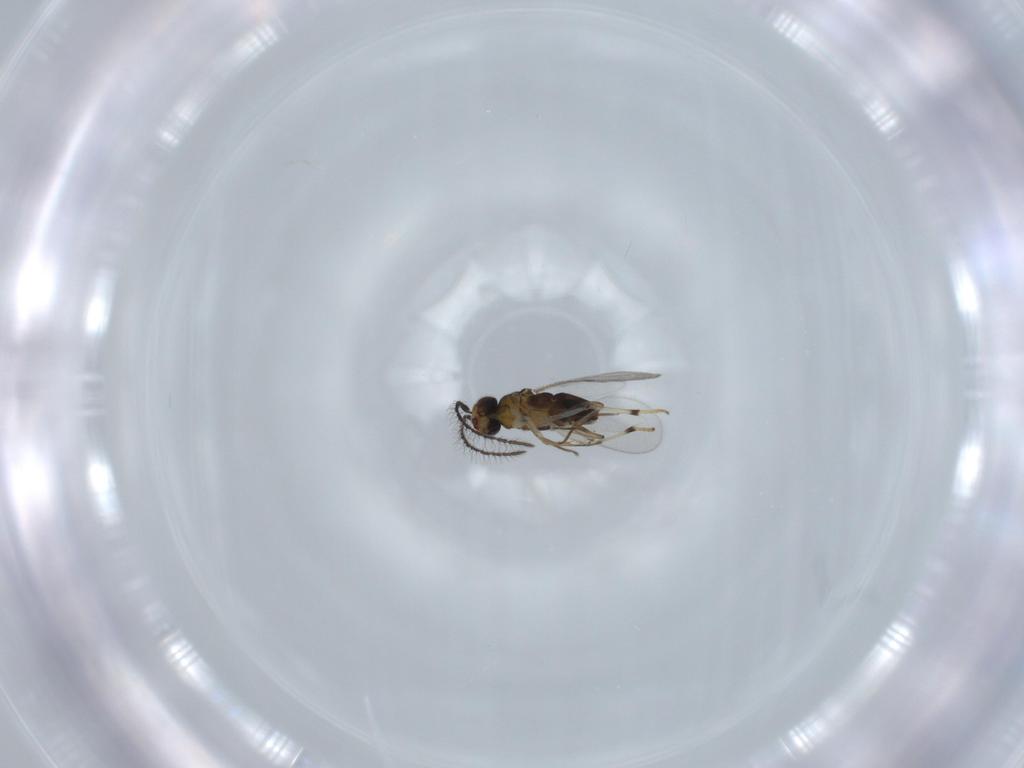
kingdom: Animalia
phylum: Arthropoda
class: Insecta
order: Hymenoptera
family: Encyrtidae
